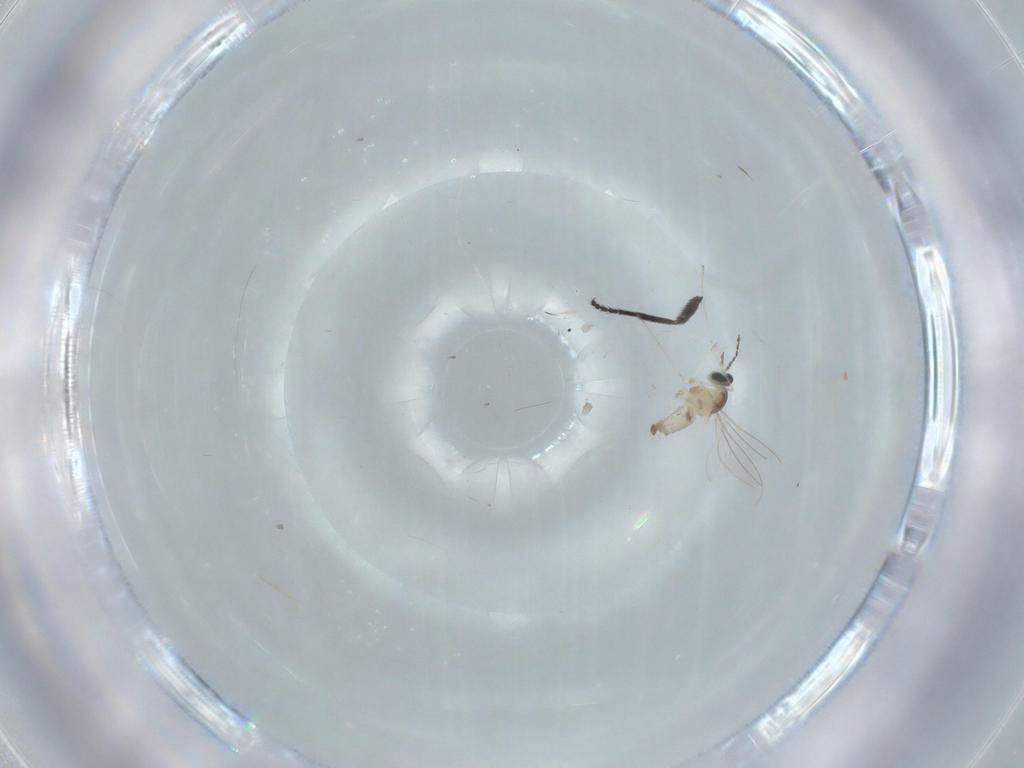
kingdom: Animalia
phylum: Arthropoda
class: Insecta
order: Diptera
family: Milichiidae
